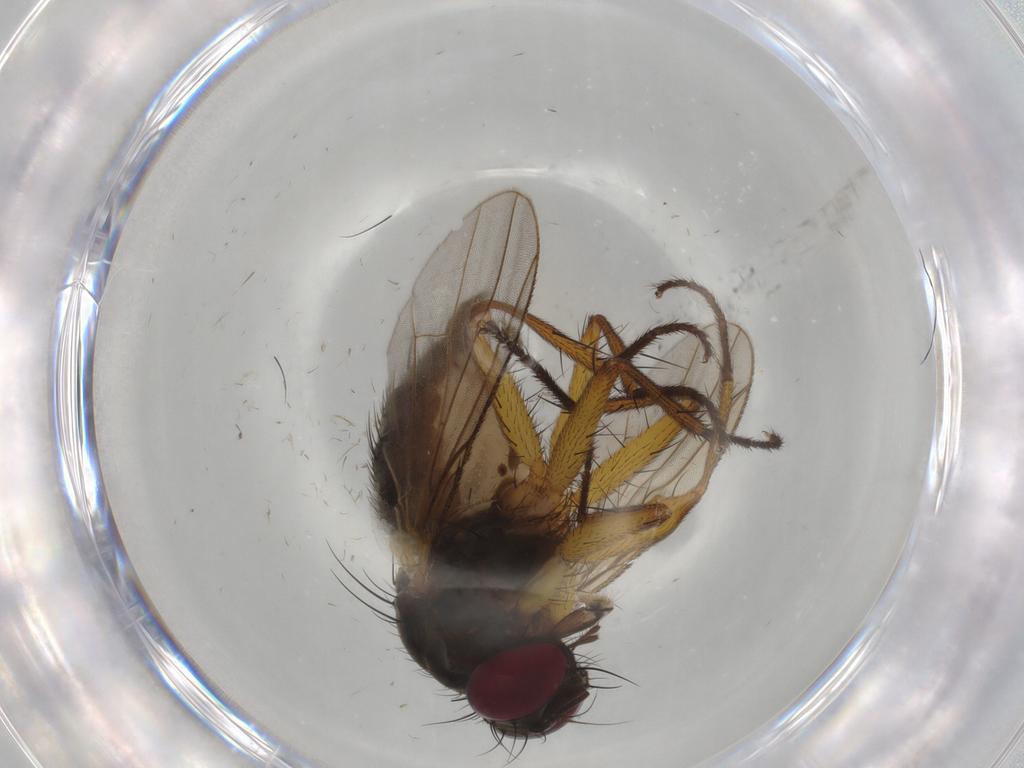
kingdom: Animalia
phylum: Arthropoda
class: Insecta
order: Diptera
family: Muscidae
